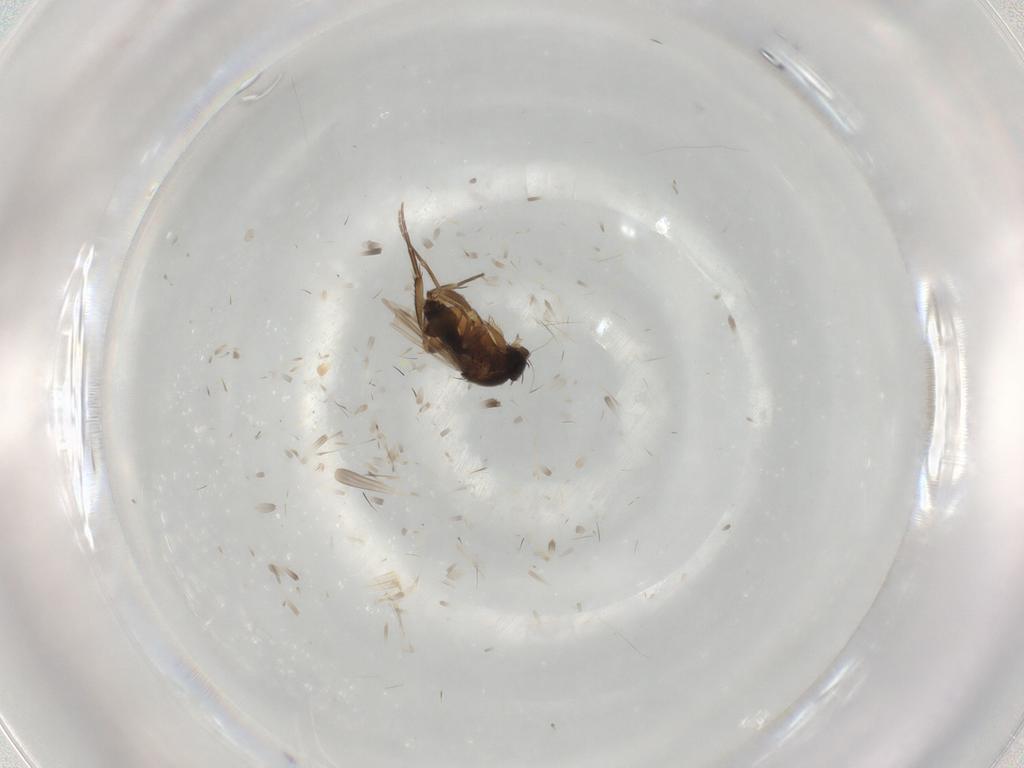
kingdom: Animalia
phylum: Arthropoda
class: Insecta
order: Diptera
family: Phoridae
